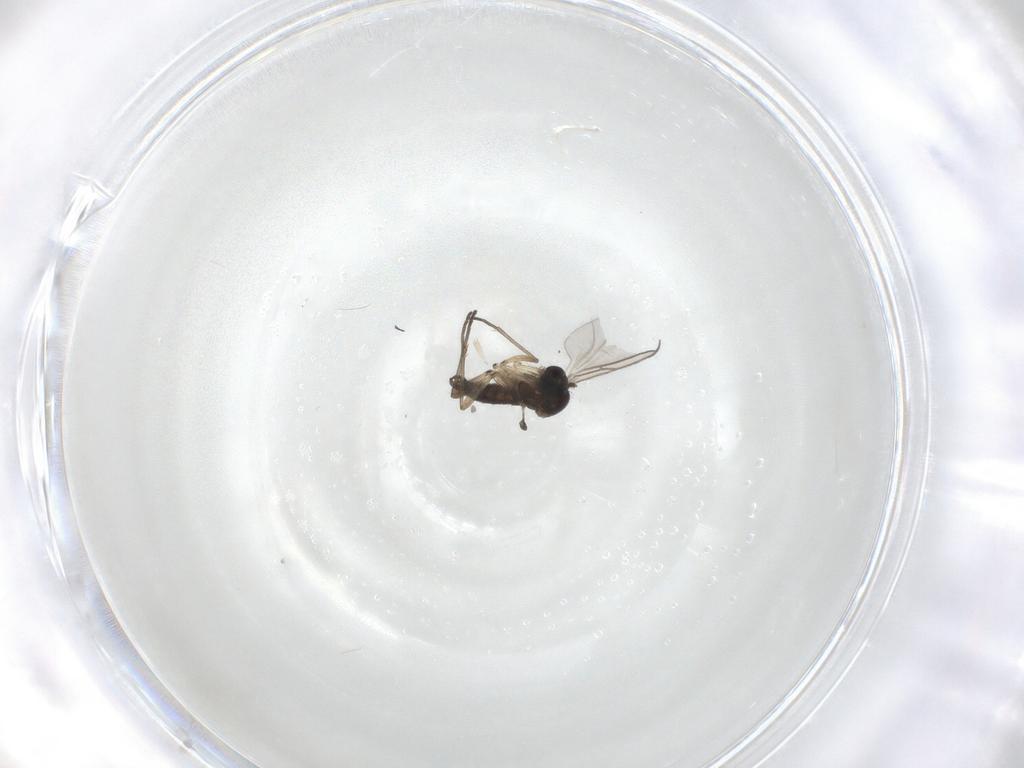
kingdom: Animalia
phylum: Arthropoda
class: Insecta
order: Diptera
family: Sciaridae
